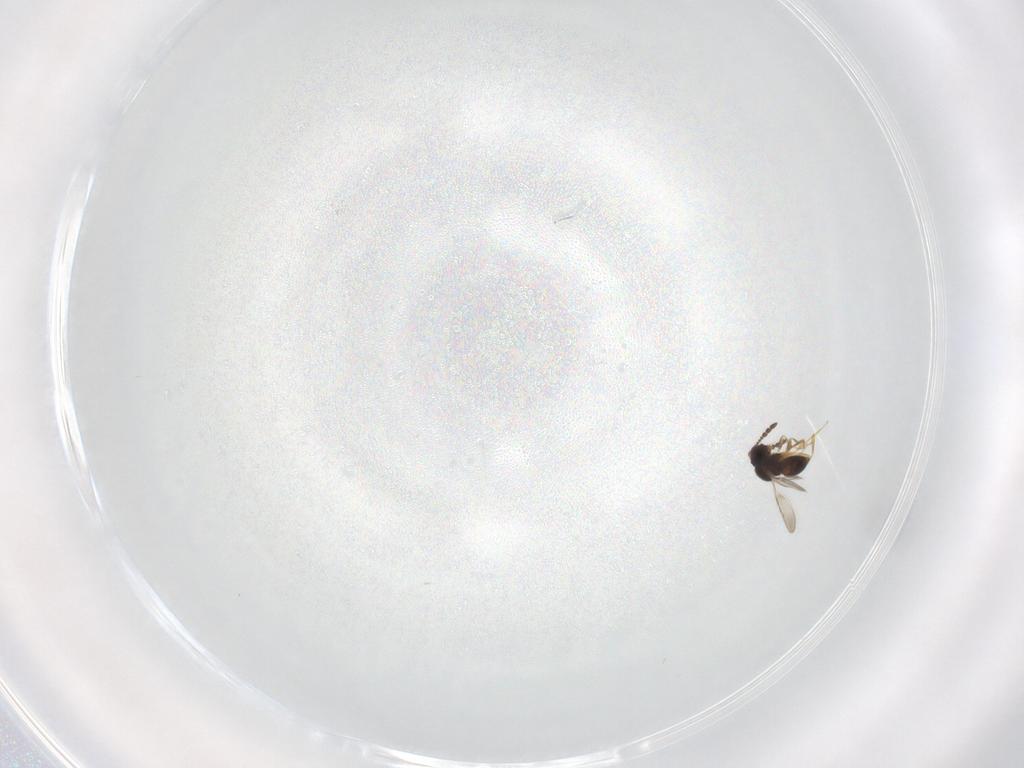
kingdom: Animalia
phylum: Arthropoda
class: Insecta
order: Hymenoptera
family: Ceraphronidae
